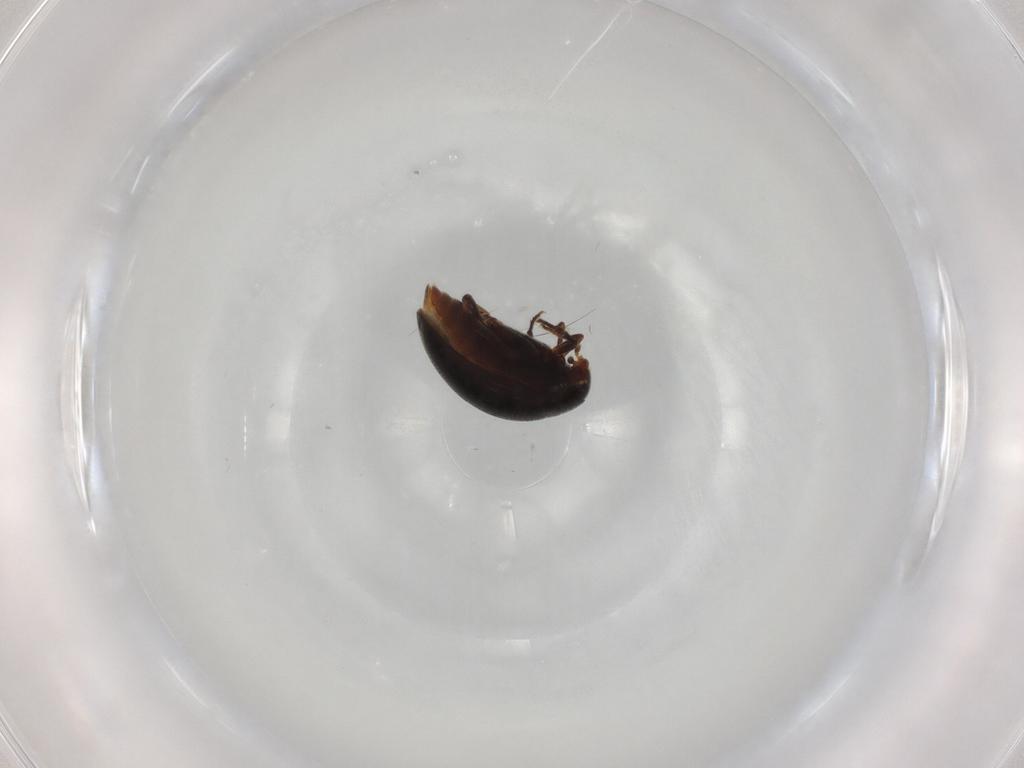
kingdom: Animalia
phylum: Arthropoda
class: Insecta
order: Coleoptera
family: Melandryidae
